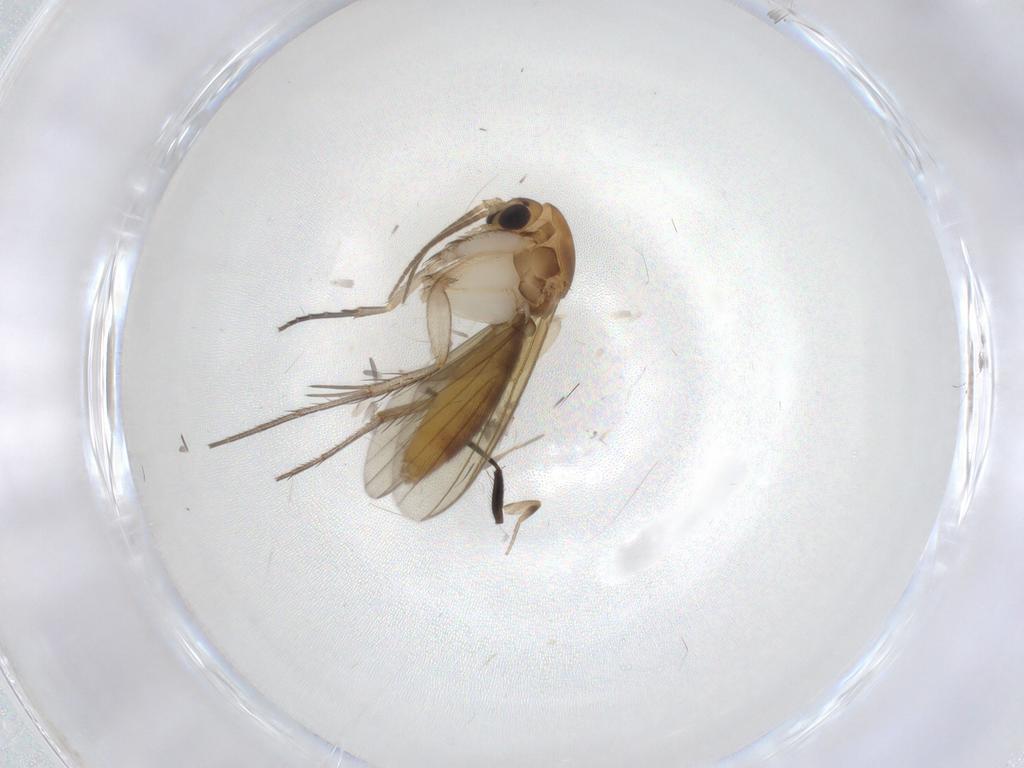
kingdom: Animalia
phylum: Arthropoda
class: Insecta
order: Diptera
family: Sciaridae
